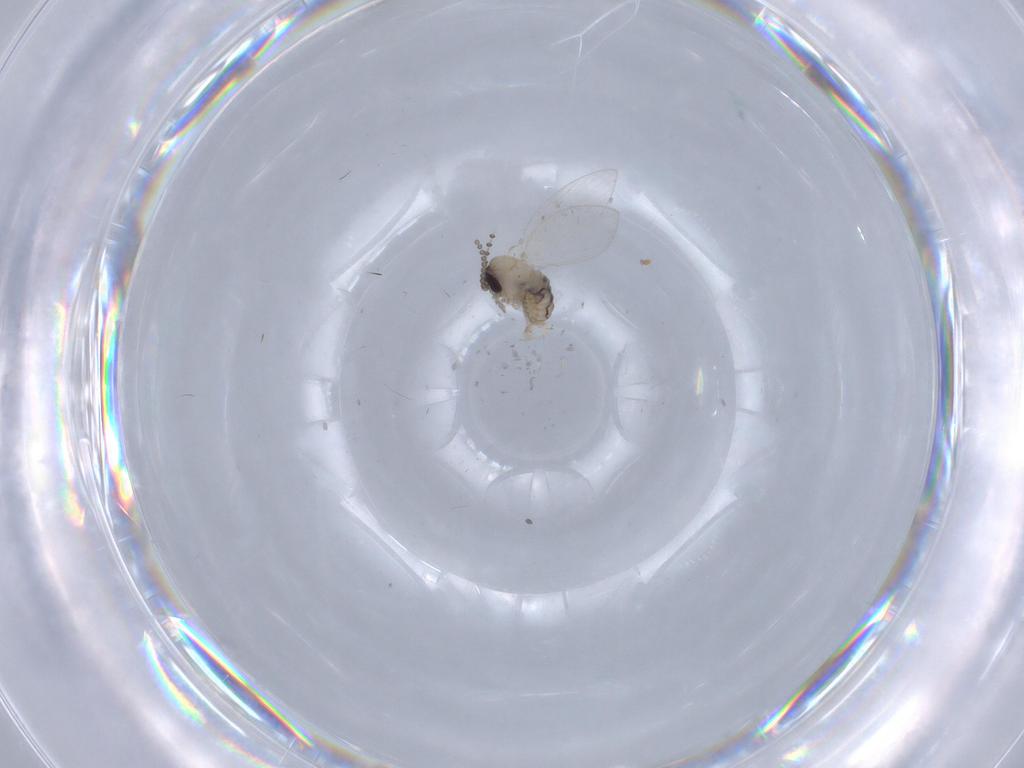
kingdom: Animalia
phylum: Arthropoda
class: Insecta
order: Diptera
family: Psychodidae
